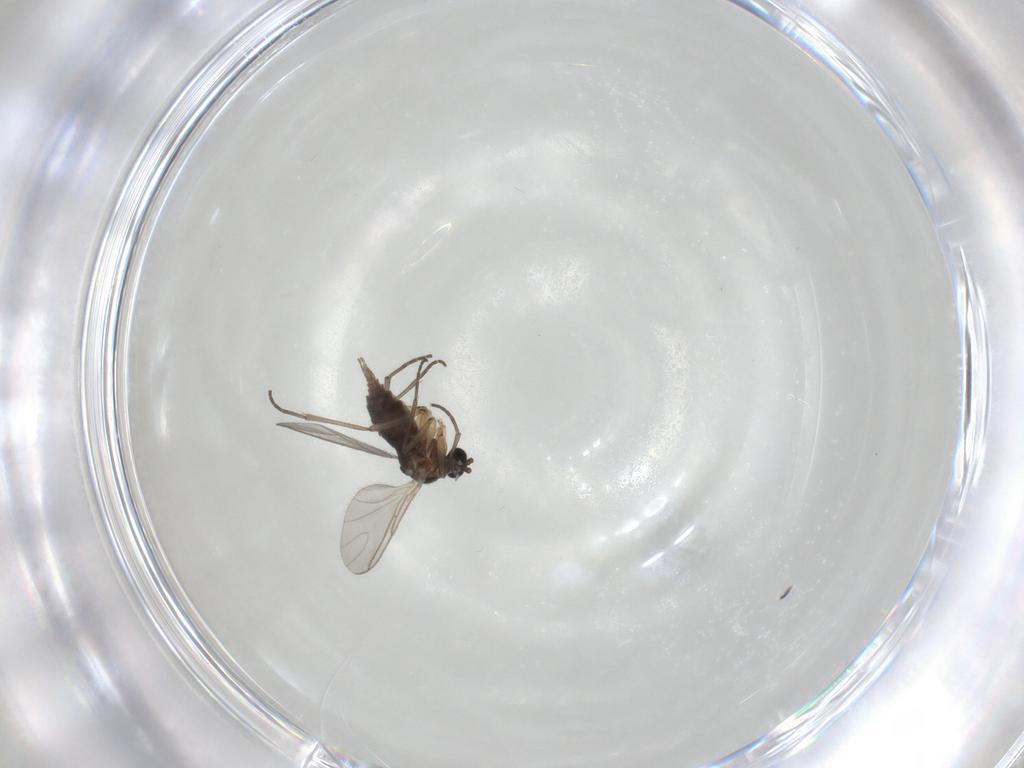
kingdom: Animalia
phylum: Arthropoda
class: Insecta
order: Diptera
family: Sciaridae
